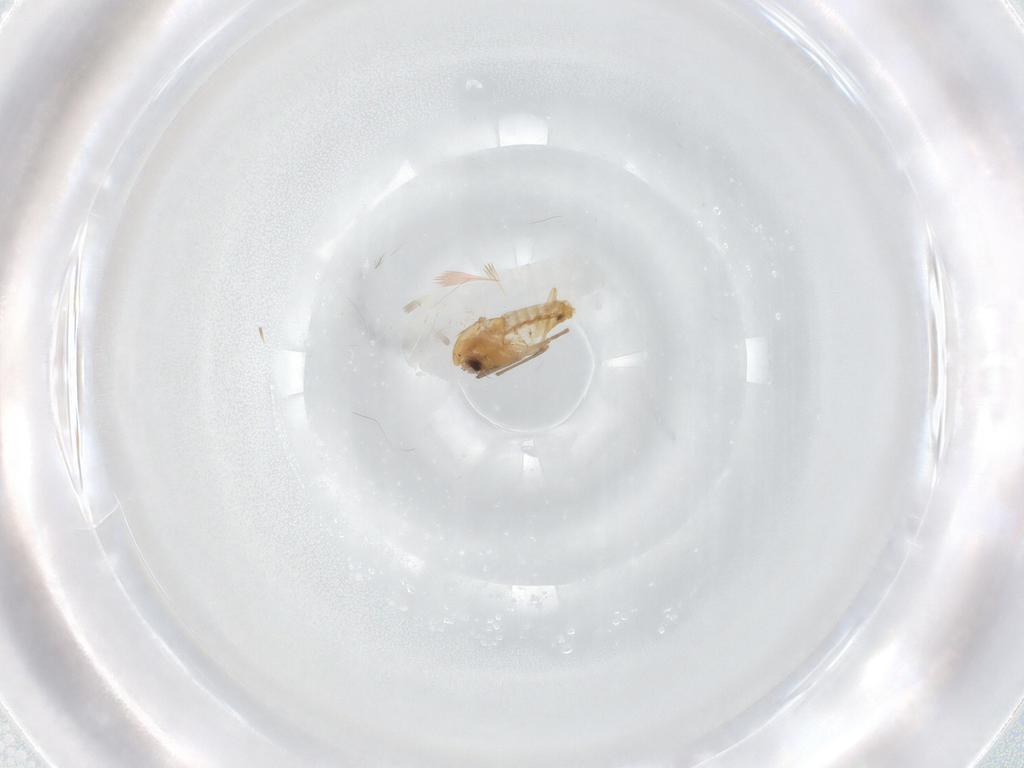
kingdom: Animalia
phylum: Arthropoda
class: Insecta
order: Diptera
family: Chironomidae
